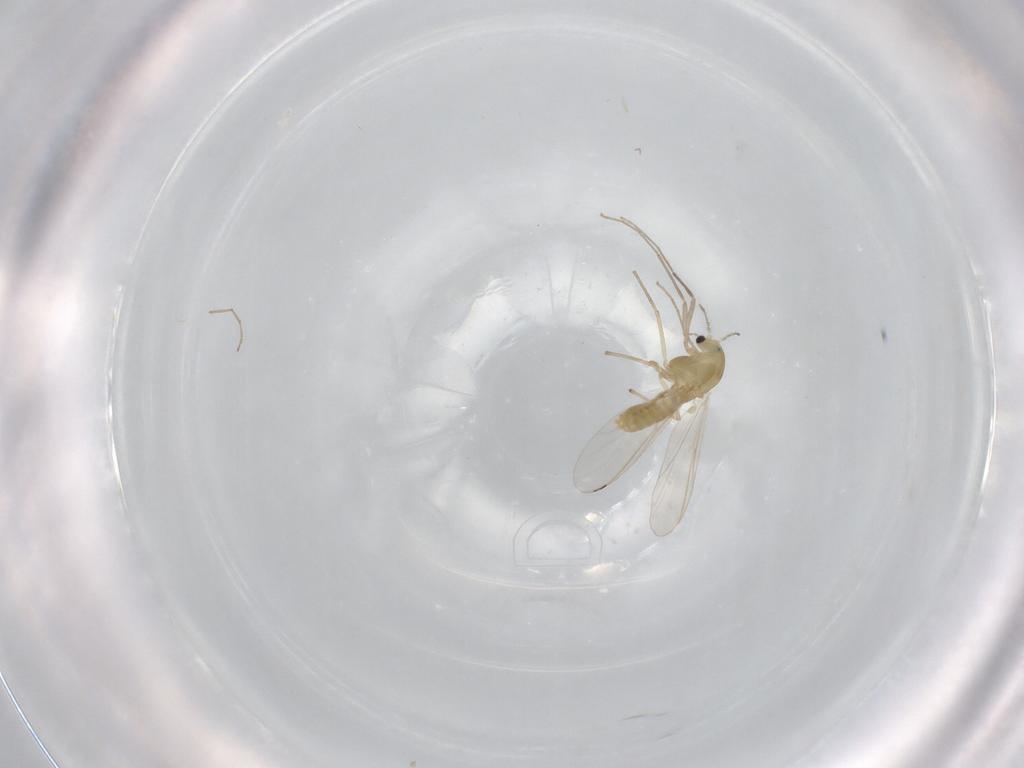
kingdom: Animalia
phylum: Arthropoda
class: Insecta
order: Diptera
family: Chironomidae
